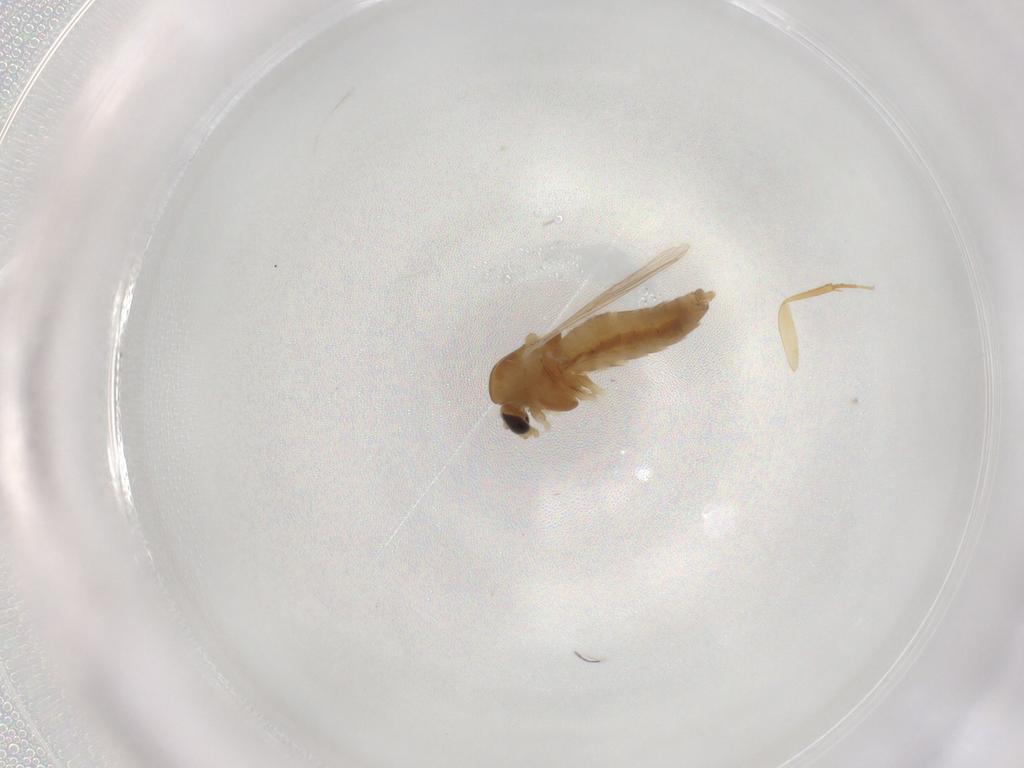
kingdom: Animalia
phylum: Arthropoda
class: Insecta
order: Diptera
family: Chironomidae
